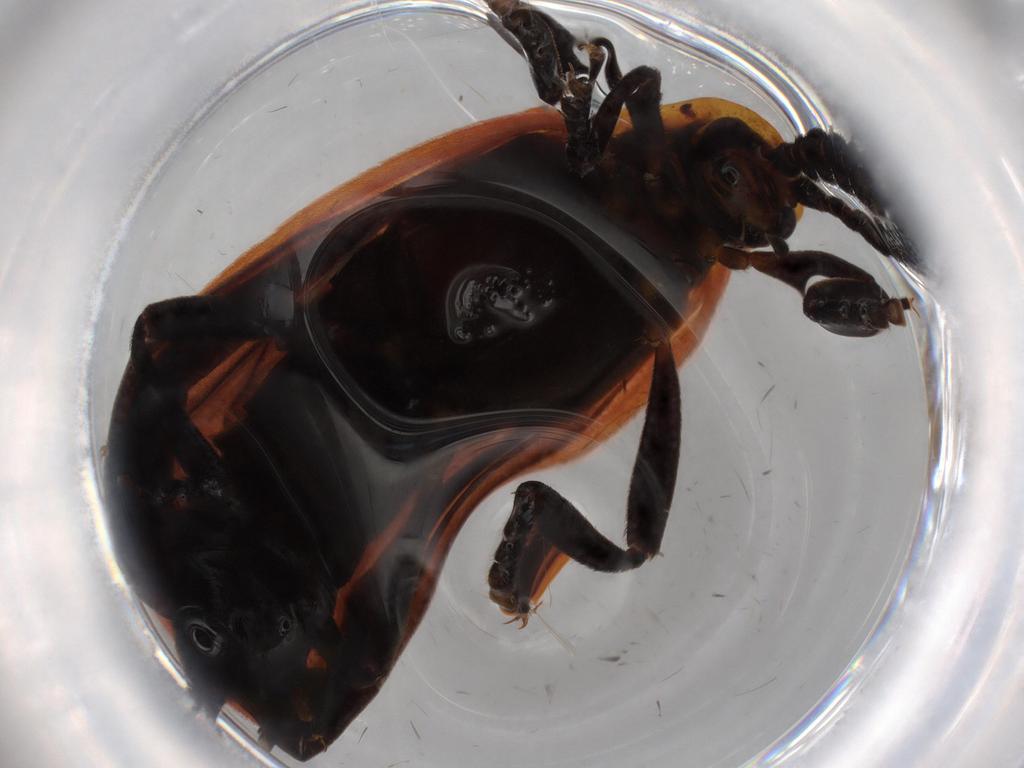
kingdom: Animalia
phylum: Arthropoda
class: Insecta
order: Coleoptera
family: Lycidae
